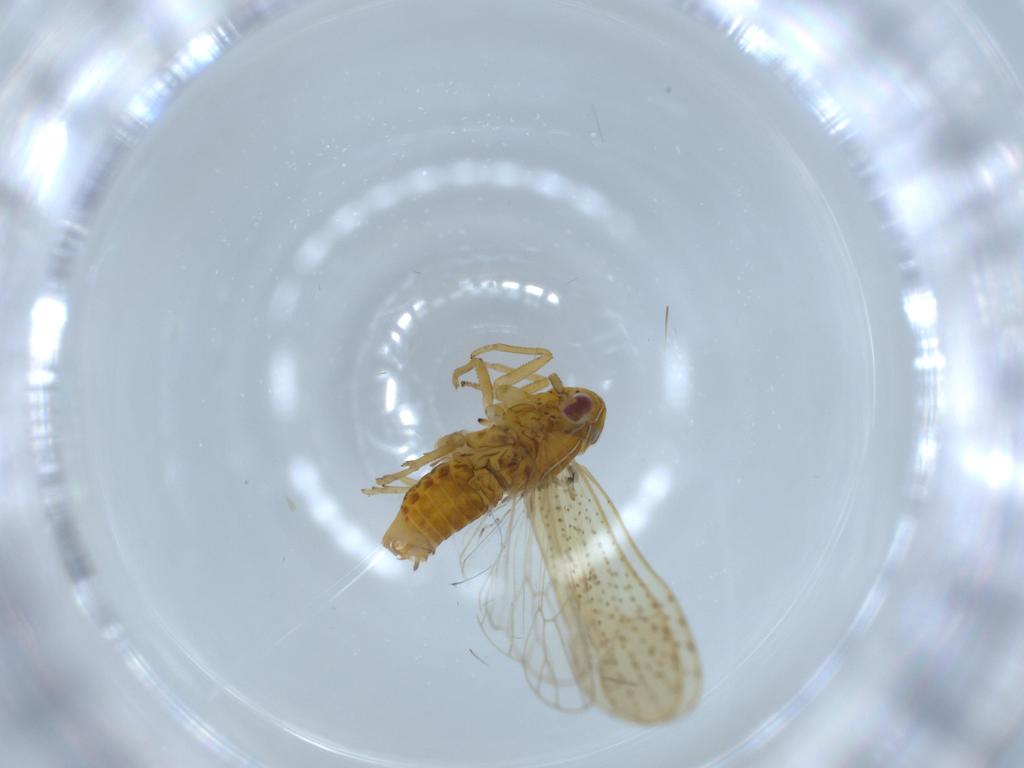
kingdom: Animalia
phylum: Arthropoda
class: Insecta
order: Hemiptera
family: Delphacidae
